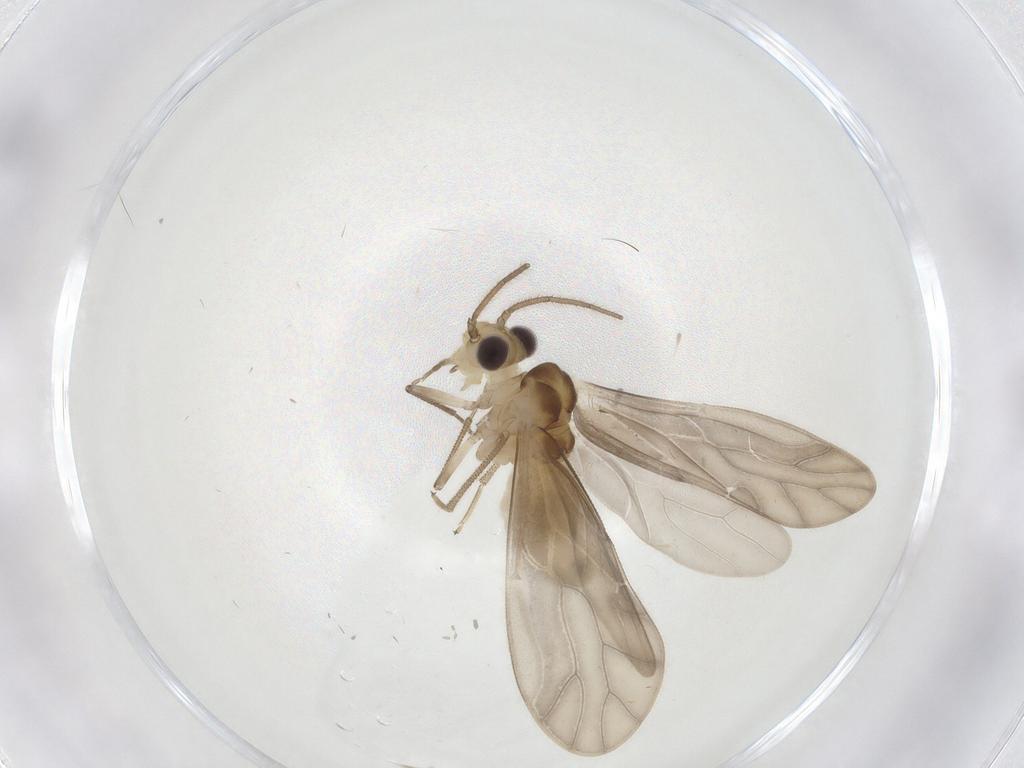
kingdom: Animalia
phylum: Arthropoda
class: Insecta
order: Psocodea
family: Caeciliusidae
